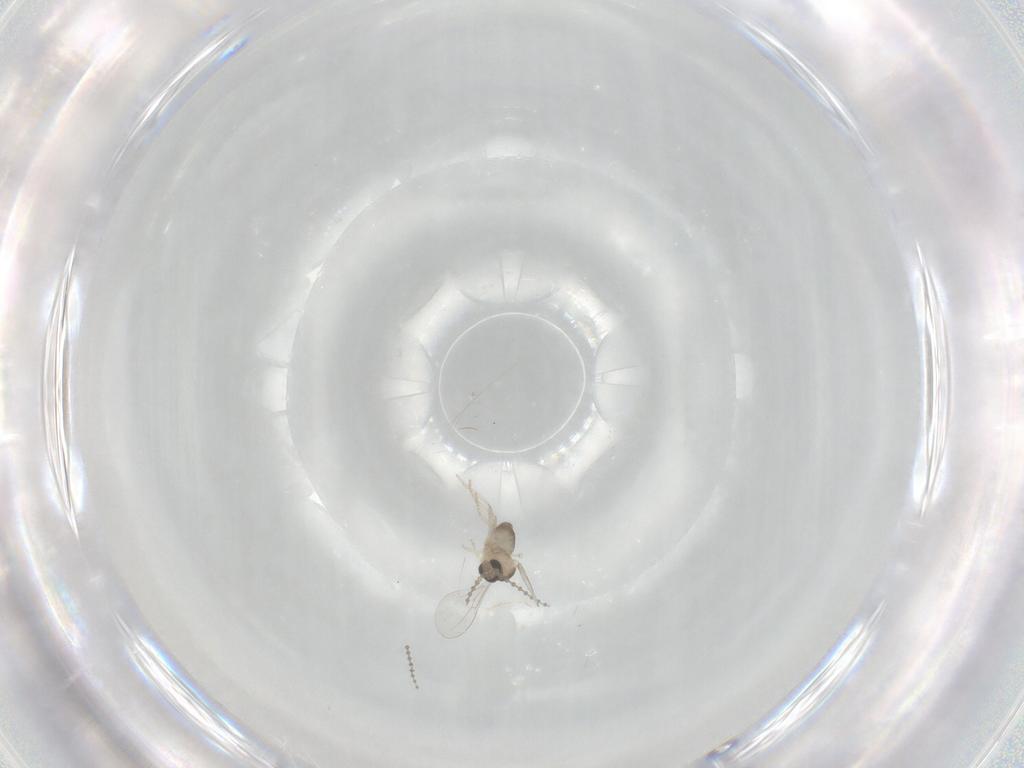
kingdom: Animalia
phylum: Arthropoda
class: Insecta
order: Diptera
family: Cecidomyiidae
